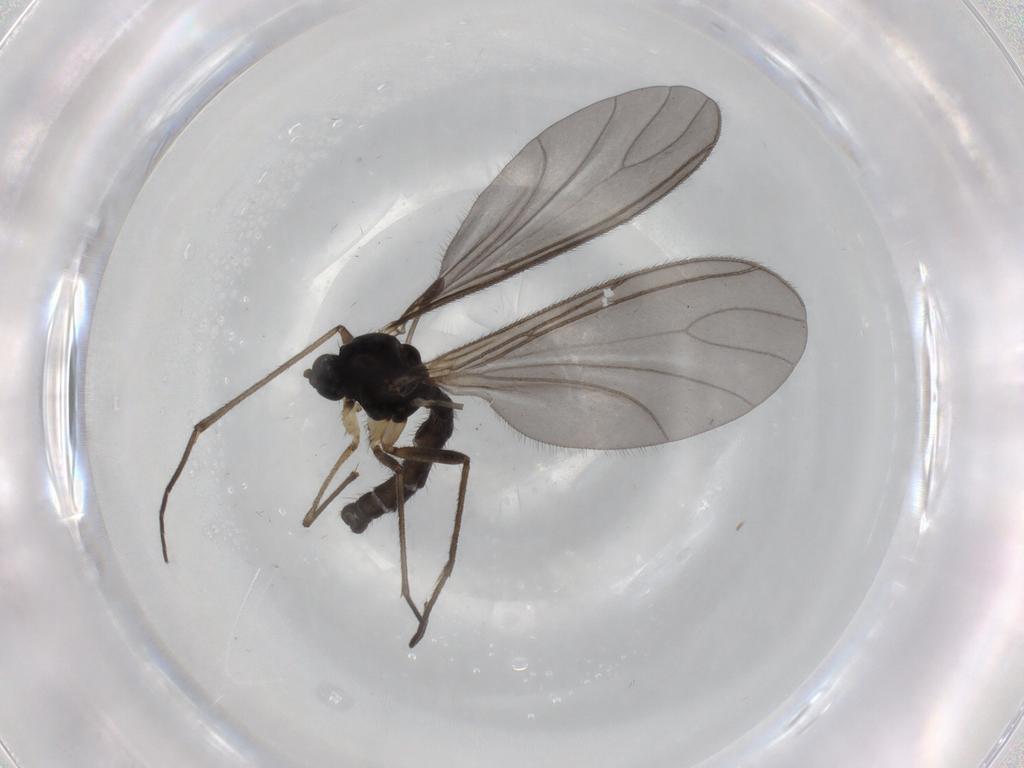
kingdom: Animalia
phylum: Arthropoda
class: Insecta
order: Diptera
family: Sciaridae
